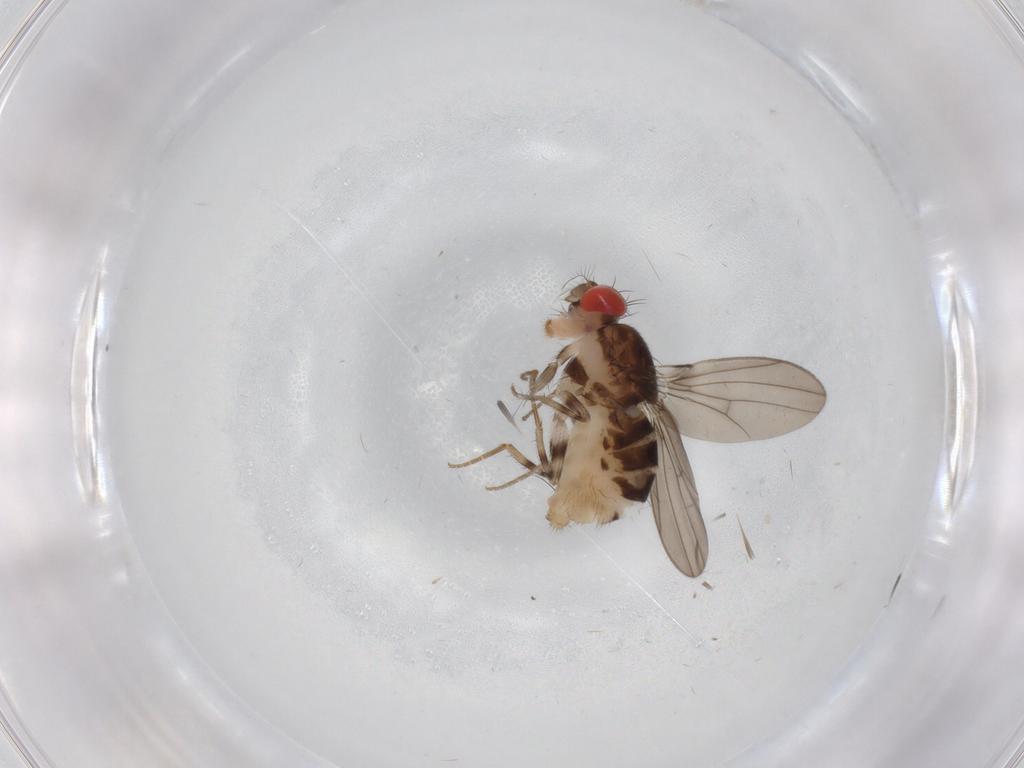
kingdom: Animalia
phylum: Arthropoda
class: Insecta
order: Diptera
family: Drosophilidae
